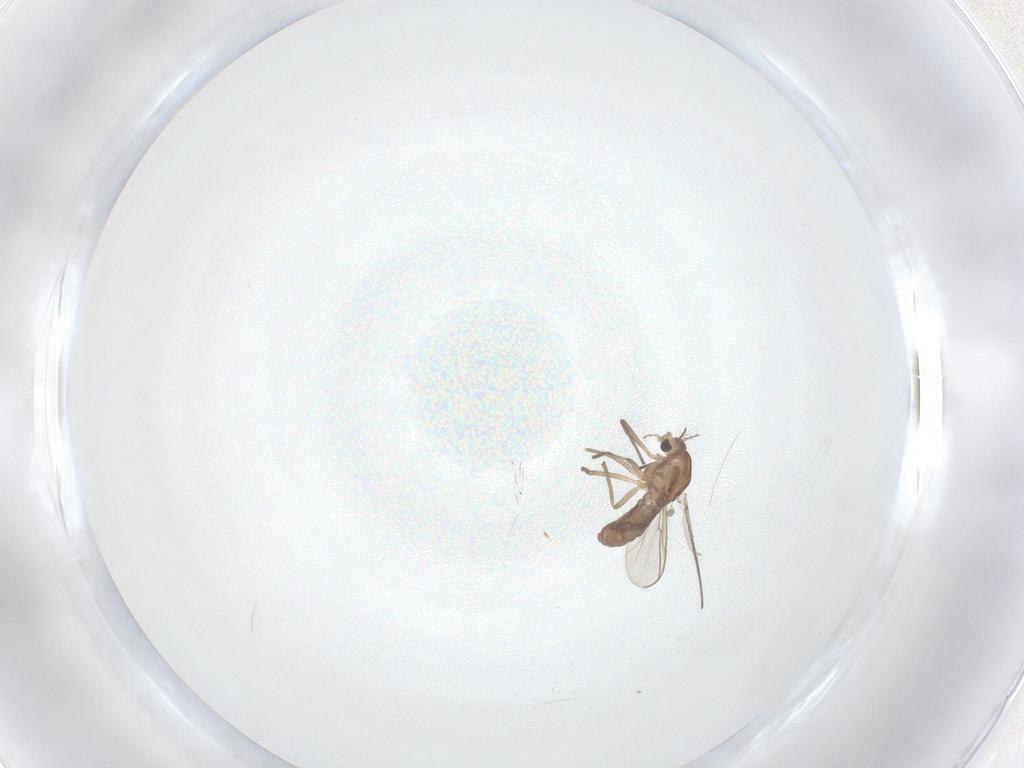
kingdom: Animalia
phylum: Arthropoda
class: Insecta
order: Diptera
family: Chironomidae
